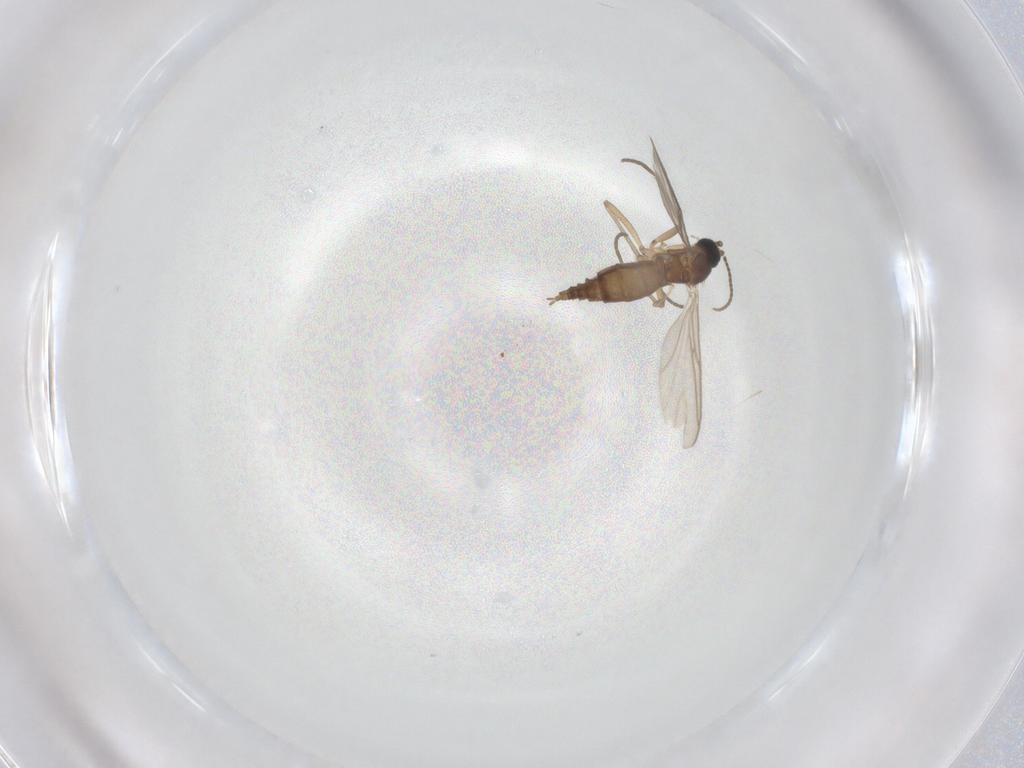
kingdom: Animalia
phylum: Arthropoda
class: Insecta
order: Diptera
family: Sciaridae
